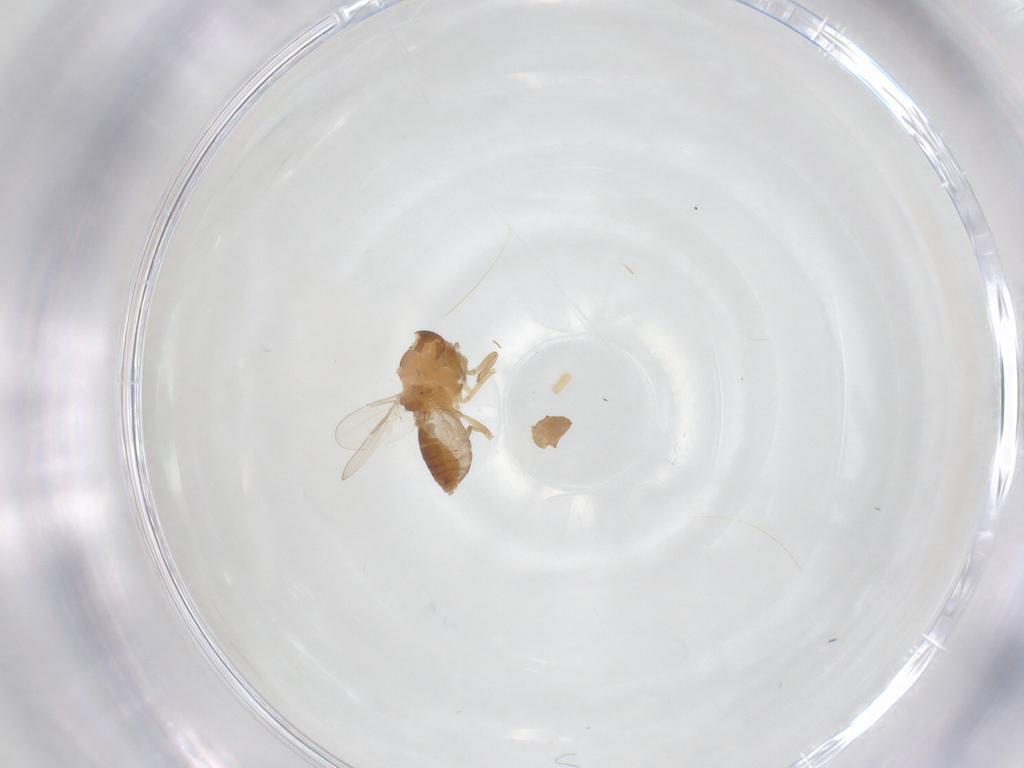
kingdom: Animalia
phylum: Arthropoda
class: Insecta
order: Diptera
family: Ceratopogonidae
